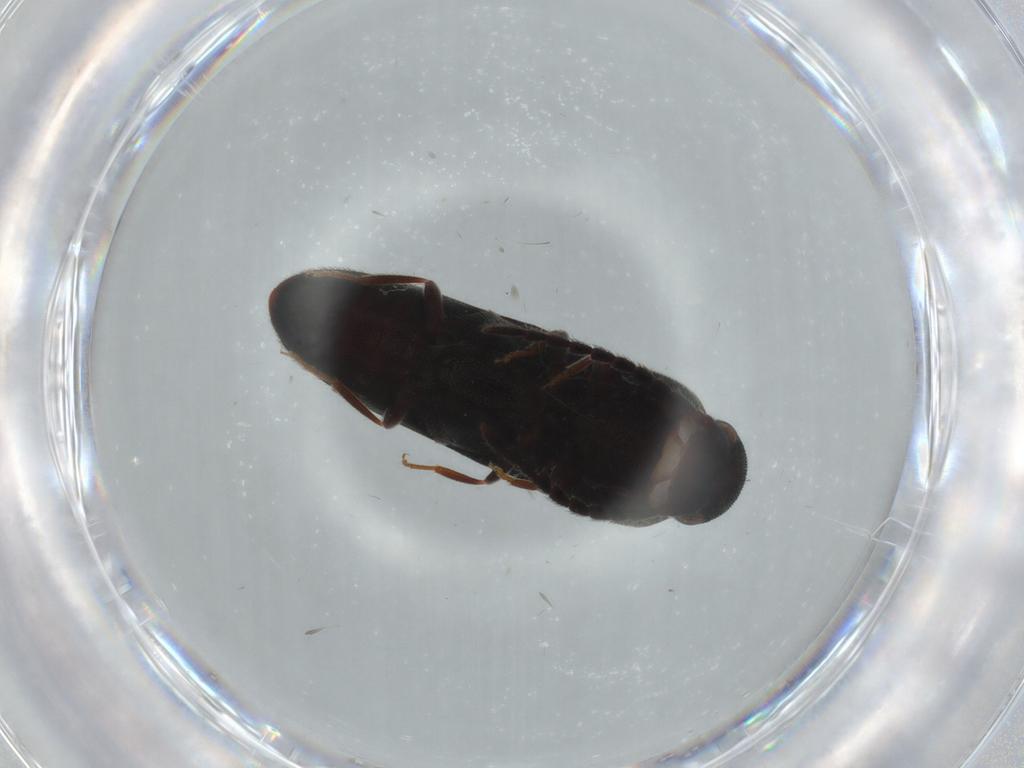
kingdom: Animalia
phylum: Arthropoda
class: Insecta
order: Coleoptera
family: Eucnemidae
